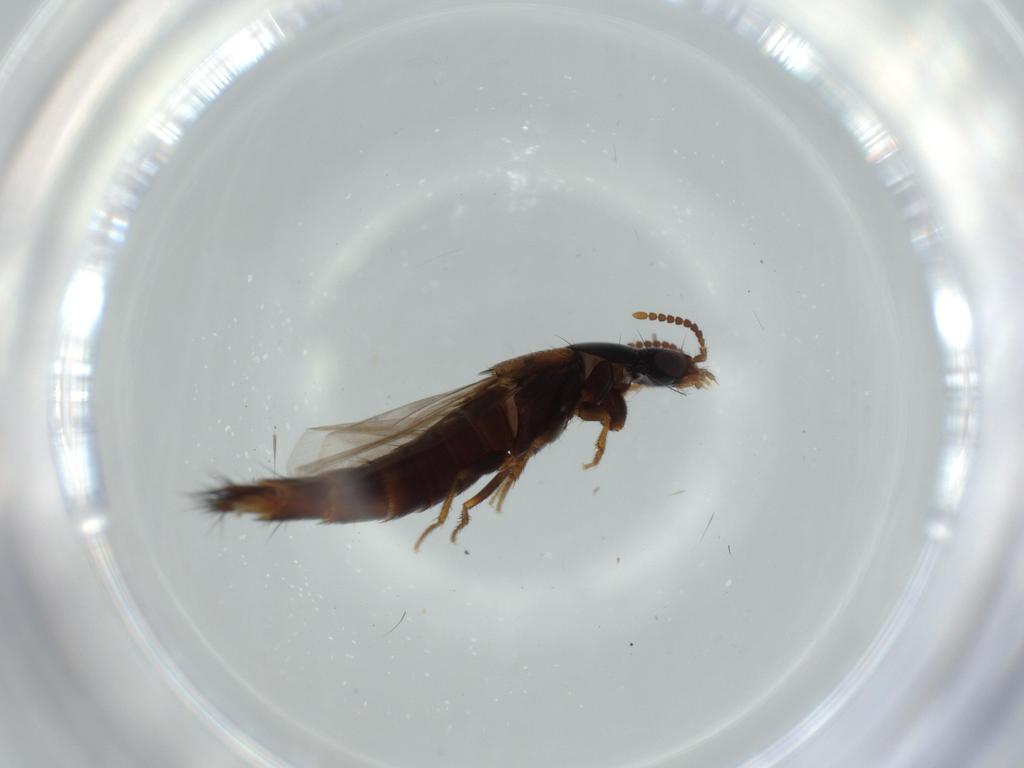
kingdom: Animalia
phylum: Arthropoda
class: Insecta
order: Coleoptera
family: Staphylinidae
